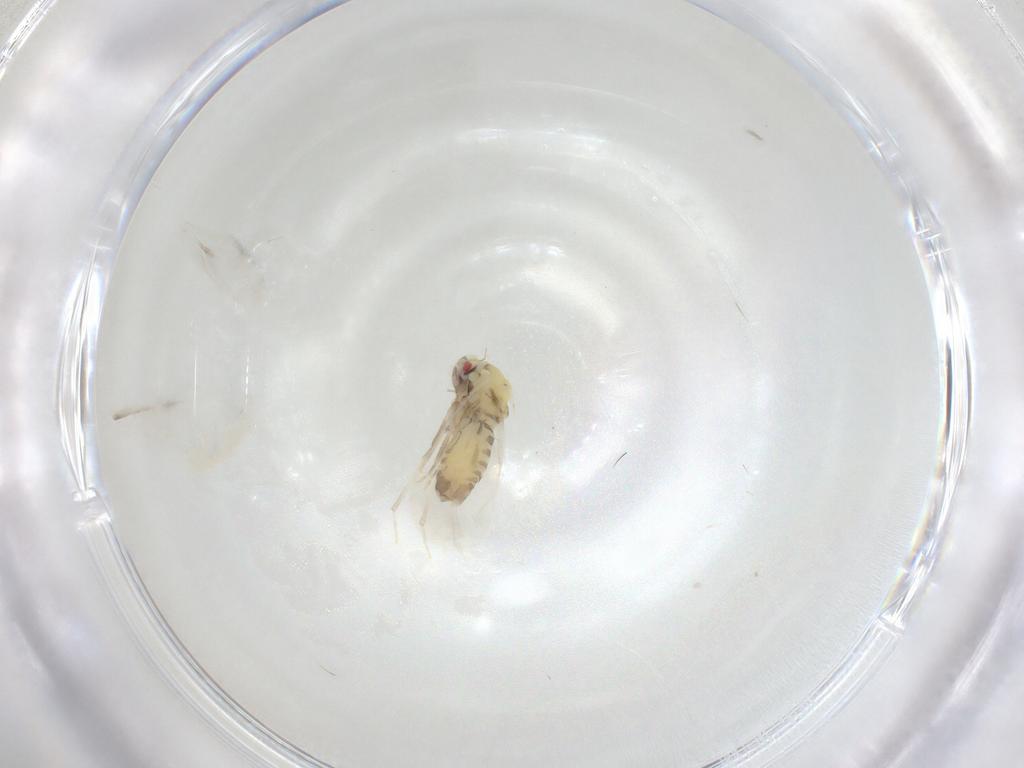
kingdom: Animalia
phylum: Arthropoda
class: Insecta
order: Hemiptera
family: Aleyrodidae
